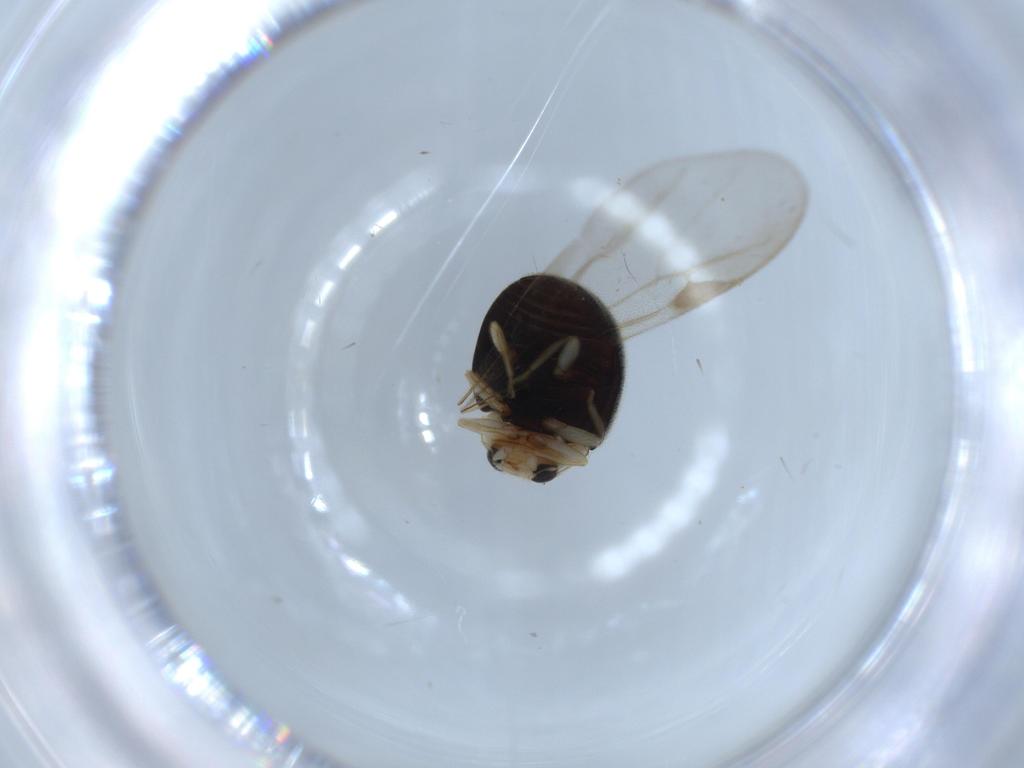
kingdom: Animalia
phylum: Arthropoda
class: Insecta
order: Coleoptera
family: Coccinellidae
